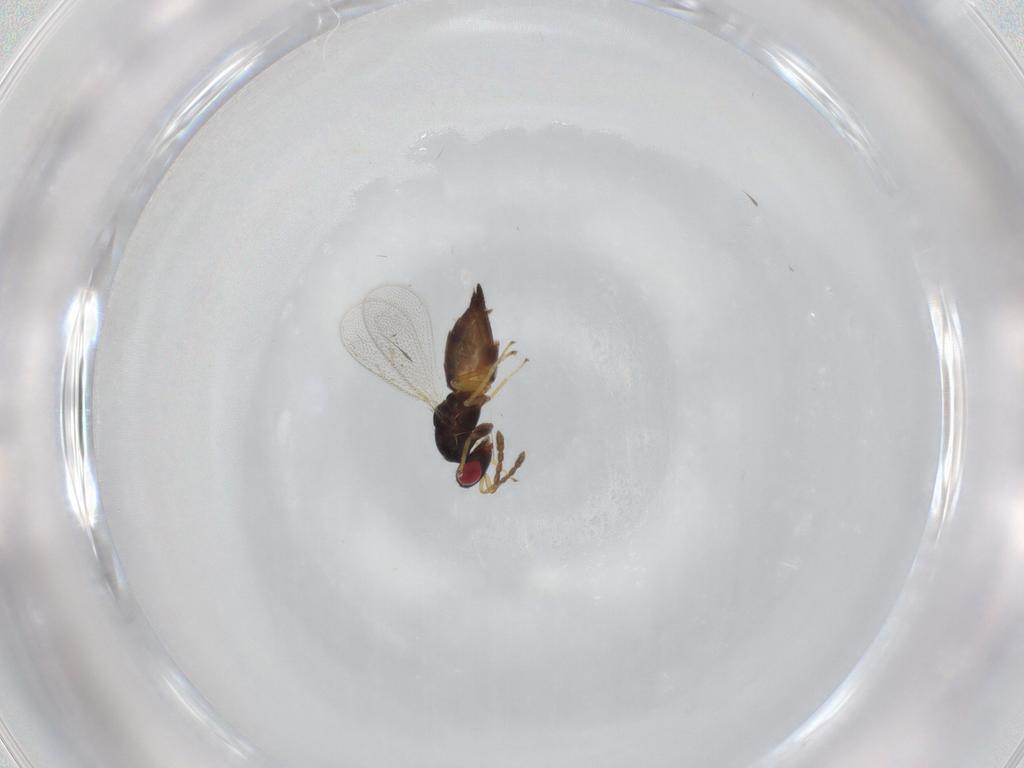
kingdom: Animalia
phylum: Arthropoda
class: Insecta
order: Hymenoptera
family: Eulophidae
